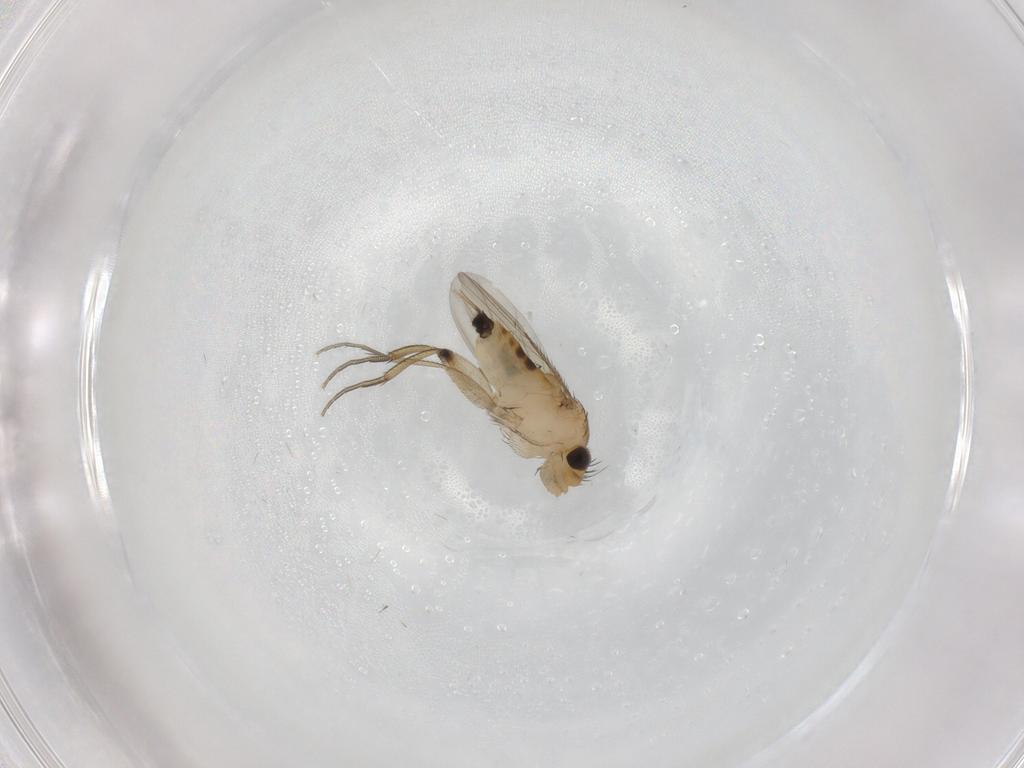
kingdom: Animalia
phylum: Arthropoda
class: Insecta
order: Diptera
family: Phoridae
